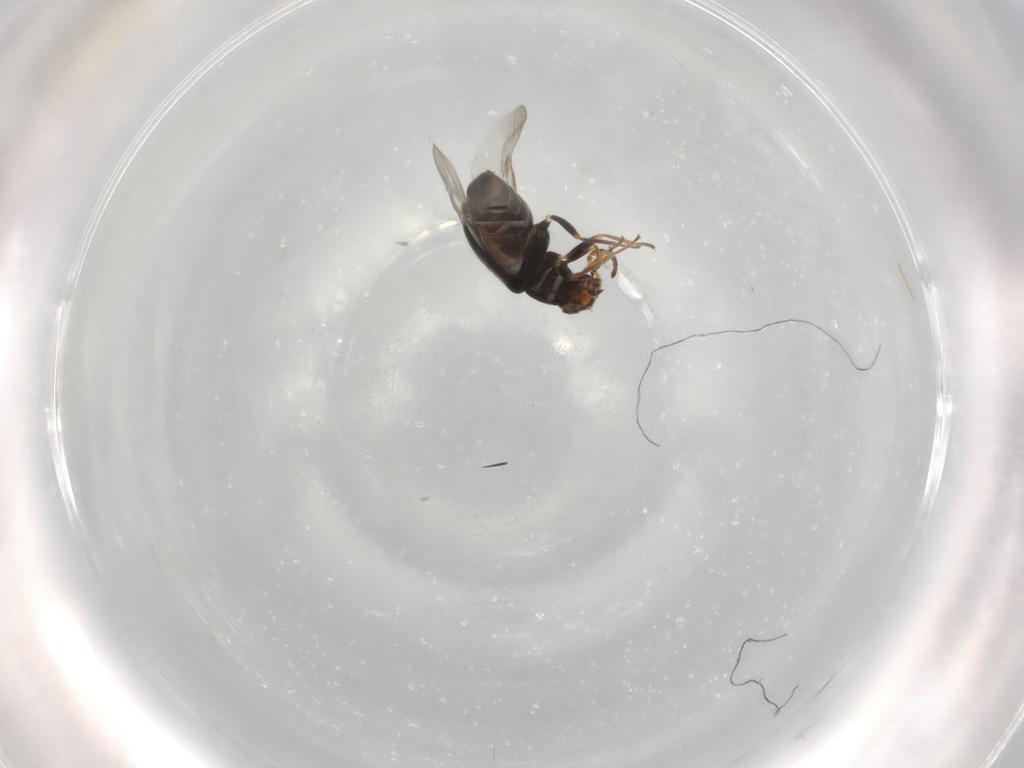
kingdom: Animalia
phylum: Arthropoda
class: Insecta
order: Coleoptera
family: Melyridae
